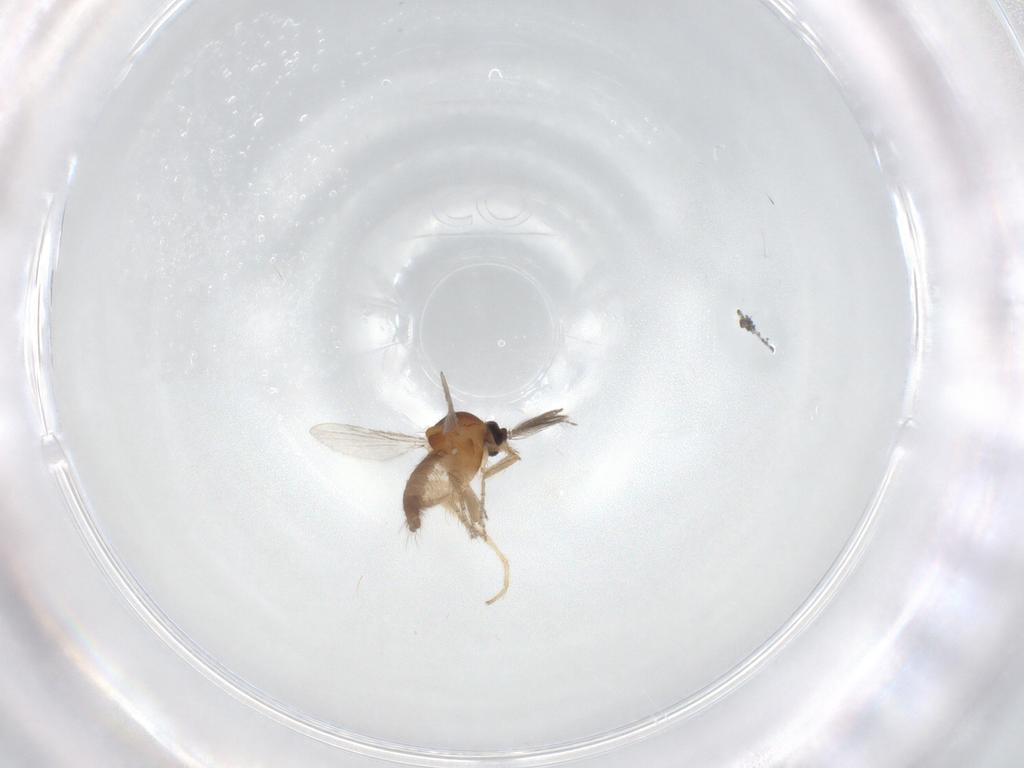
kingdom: Animalia
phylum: Arthropoda
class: Insecta
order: Diptera
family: Ceratopogonidae
